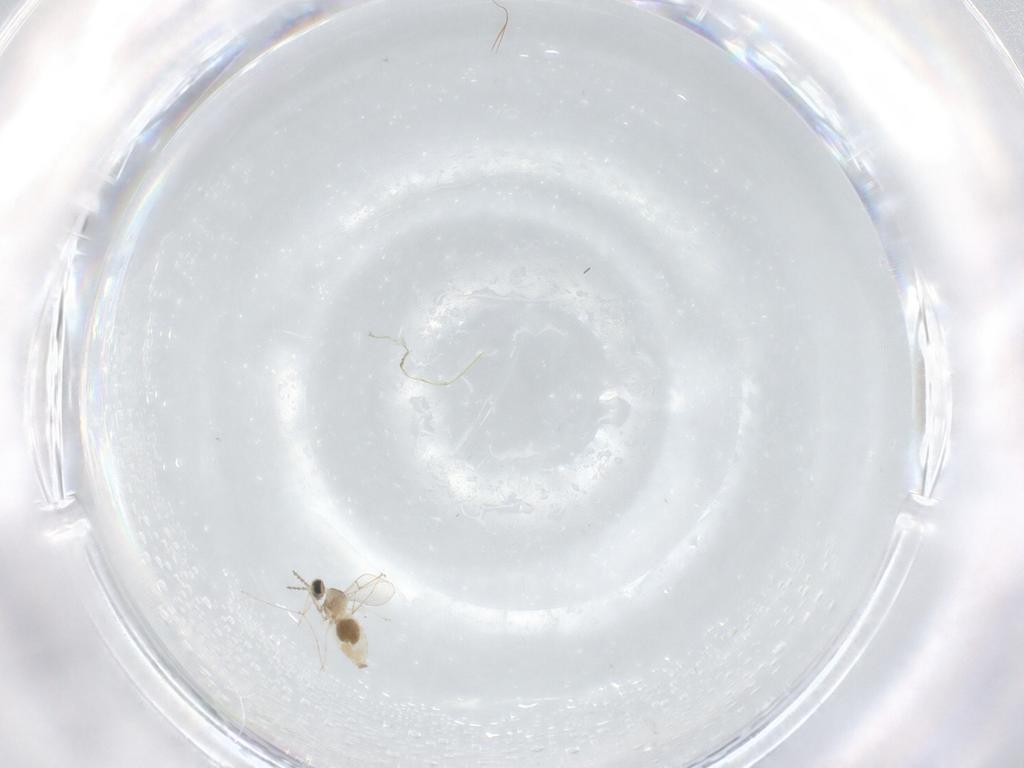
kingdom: Animalia
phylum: Arthropoda
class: Insecta
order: Diptera
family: Cecidomyiidae
